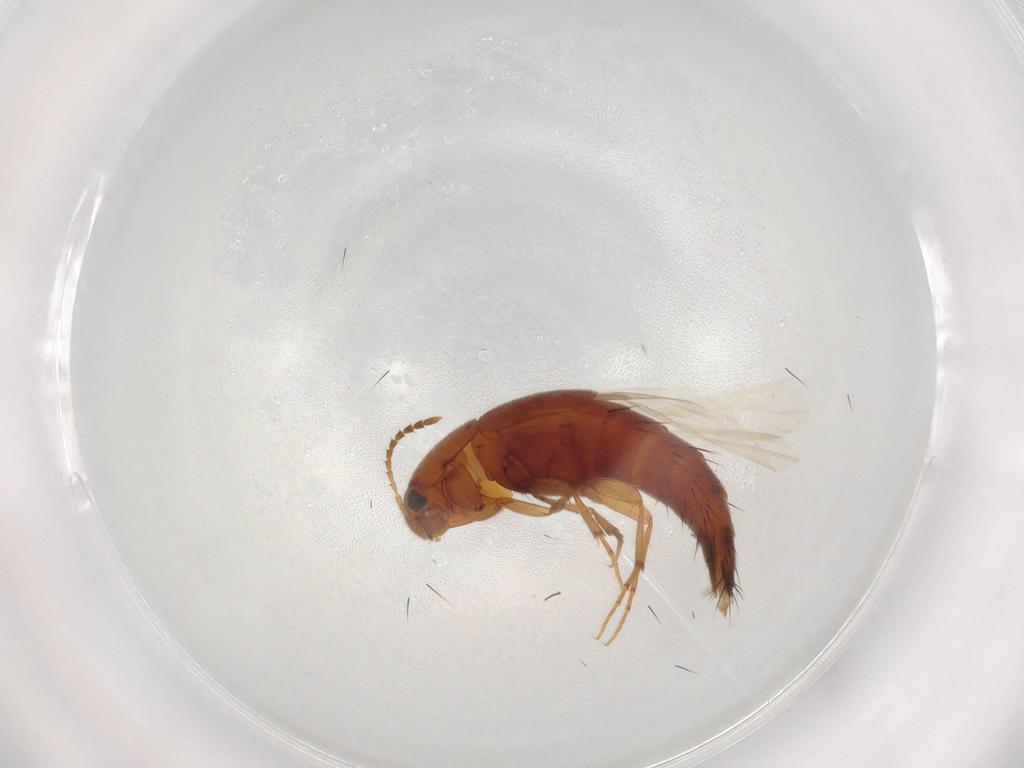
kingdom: Animalia
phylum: Arthropoda
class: Insecta
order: Coleoptera
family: Staphylinidae
